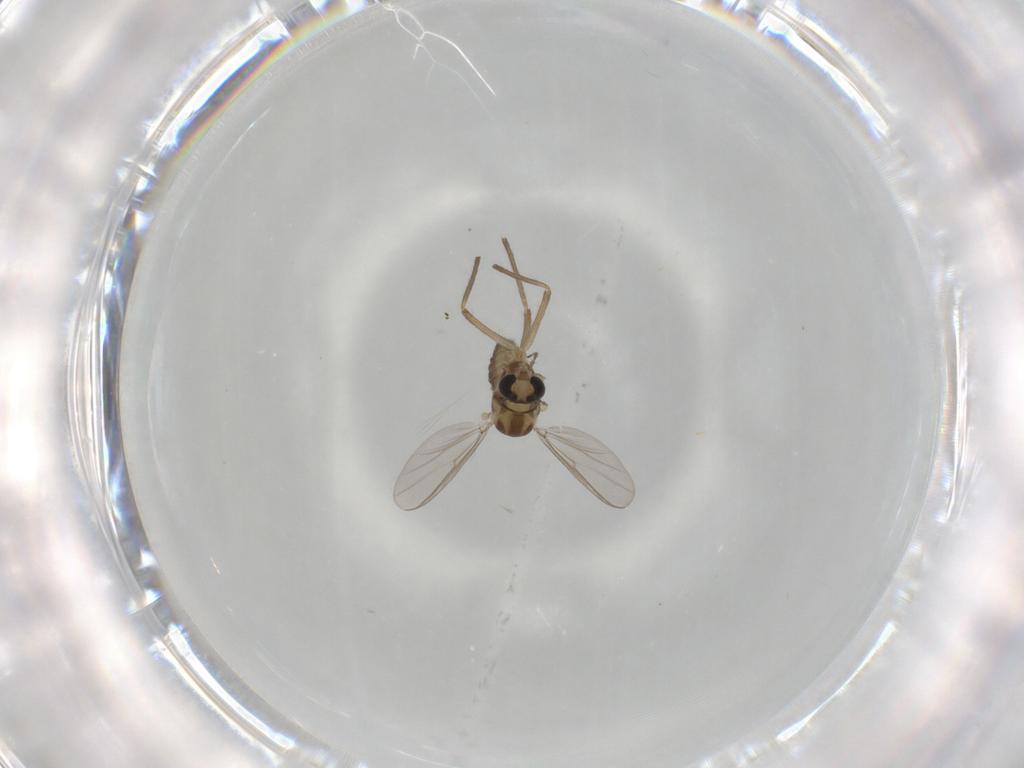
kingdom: Animalia
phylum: Arthropoda
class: Insecta
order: Diptera
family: Chironomidae
